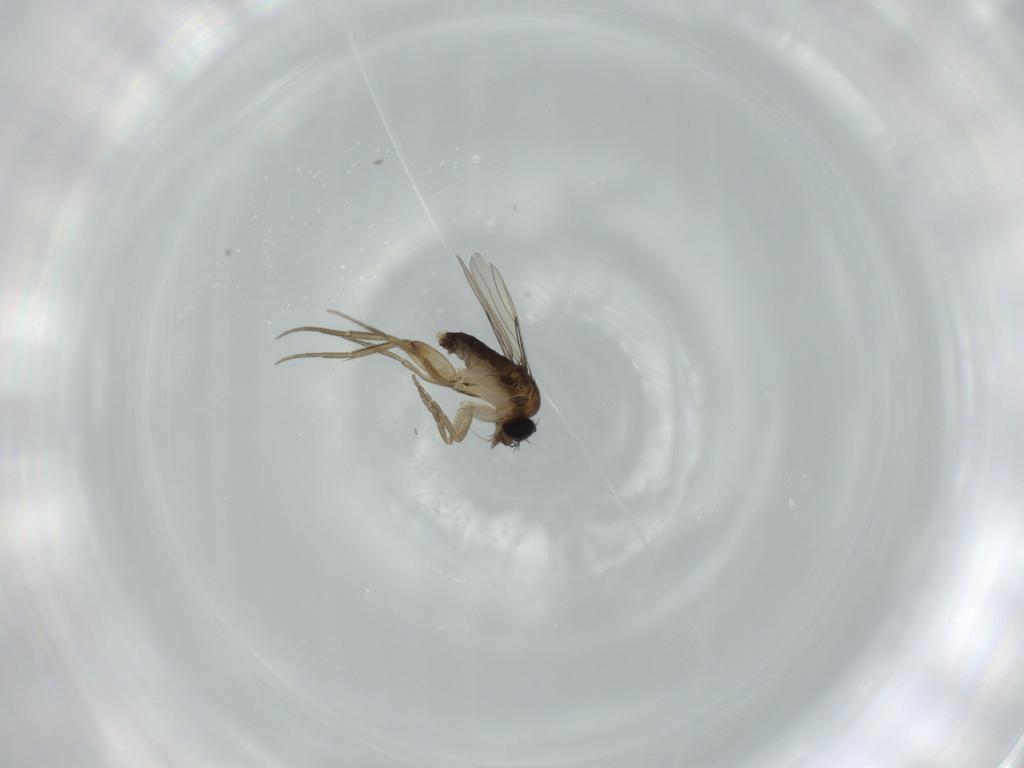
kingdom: Animalia
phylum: Arthropoda
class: Insecta
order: Diptera
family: Phoridae
